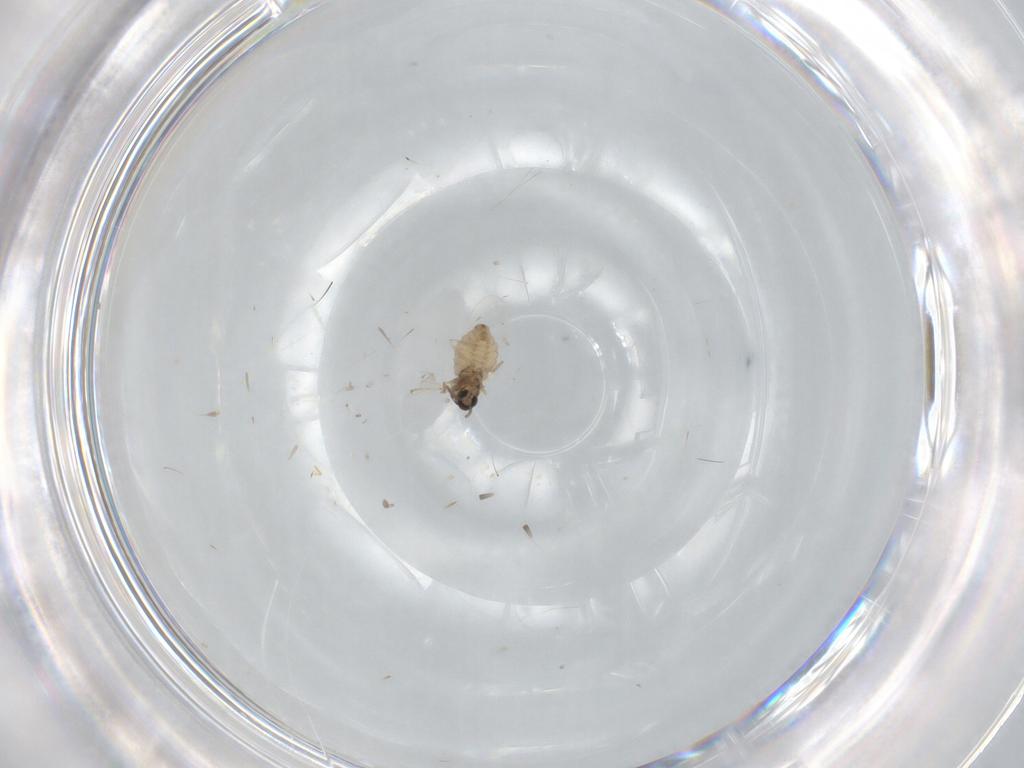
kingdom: Animalia
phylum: Arthropoda
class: Insecta
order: Diptera
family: Cecidomyiidae
